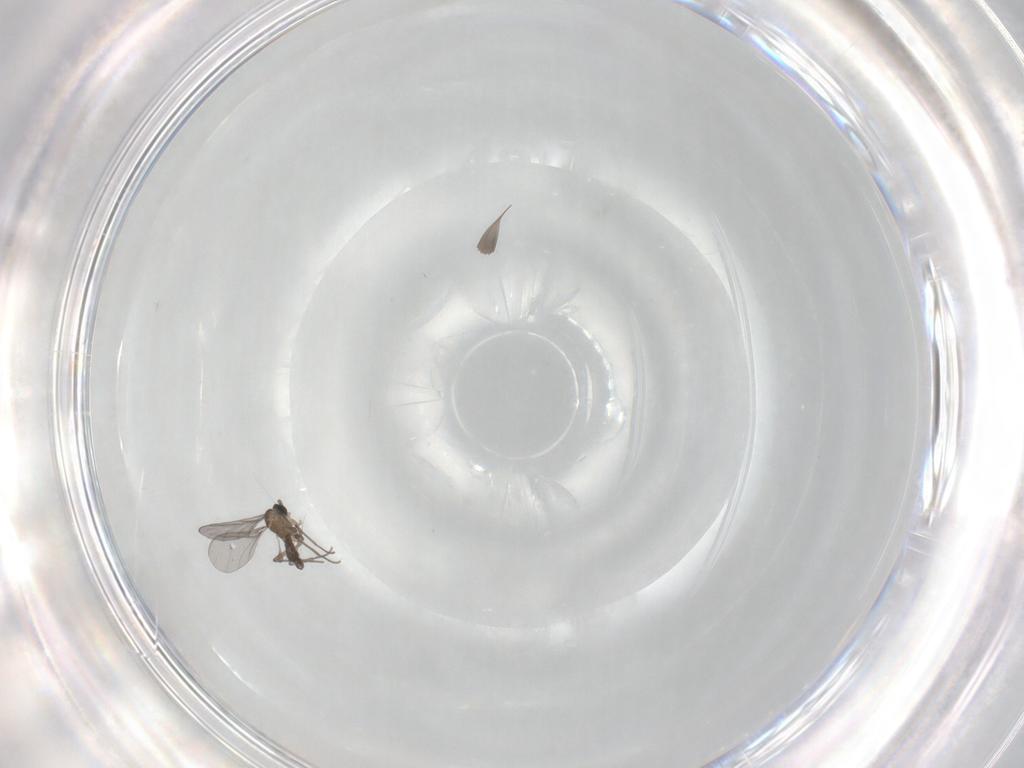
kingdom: Animalia
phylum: Arthropoda
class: Insecta
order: Diptera
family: Sciaridae
